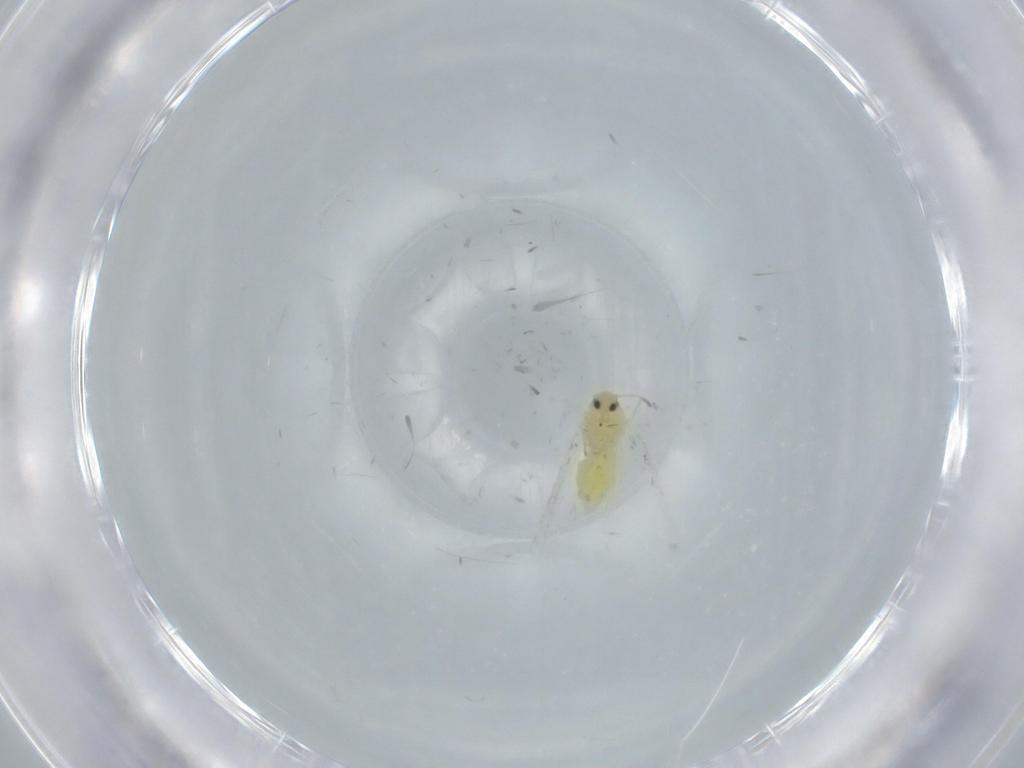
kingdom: Animalia
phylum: Arthropoda
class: Insecta
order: Hemiptera
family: Aleyrodidae
